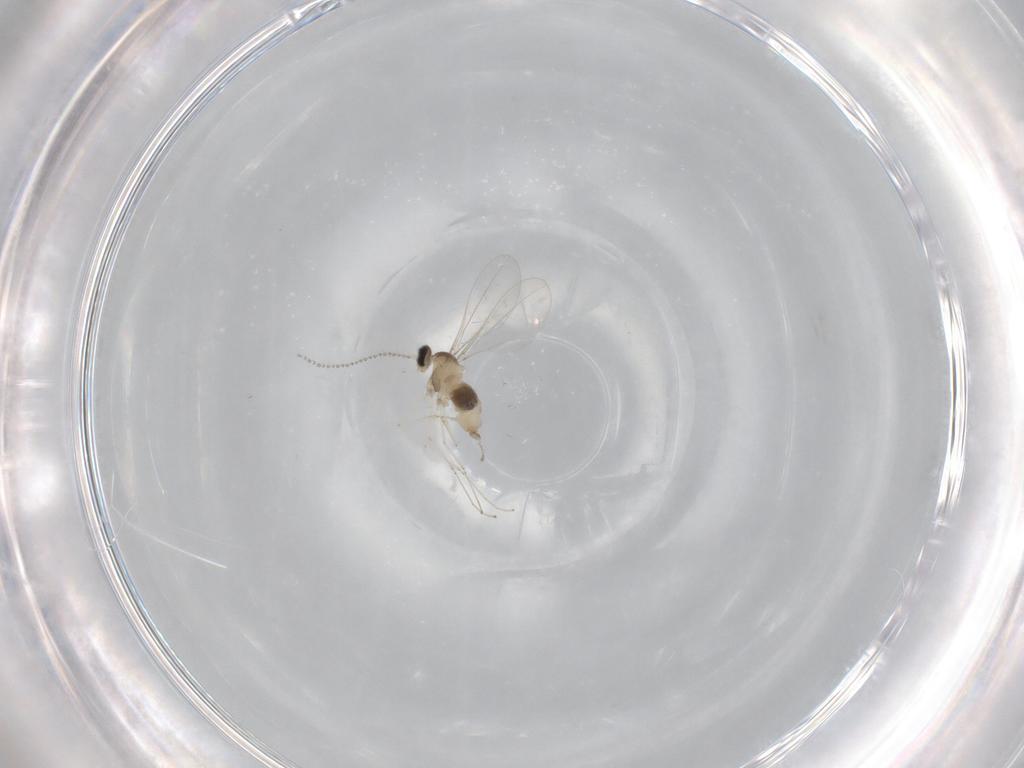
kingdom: Animalia
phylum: Arthropoda
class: Insecta
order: Diptera
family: Cecidomyiidae
